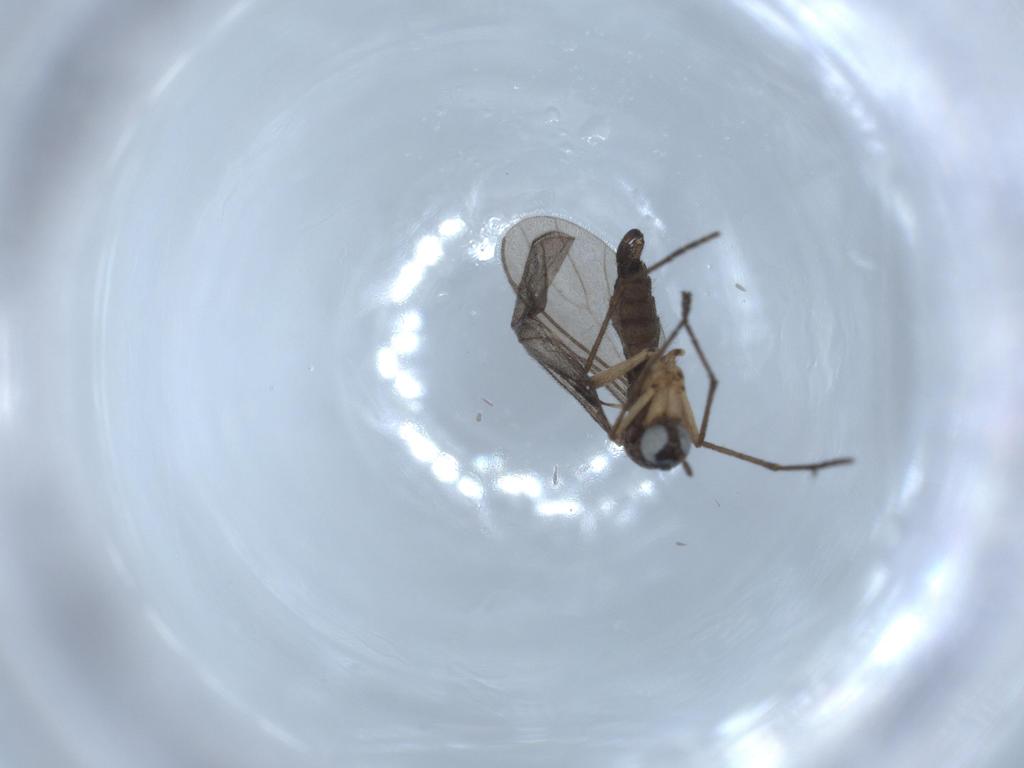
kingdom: Animalia
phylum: Arthropoda
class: Insecta
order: Diptera
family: Sciaridae
